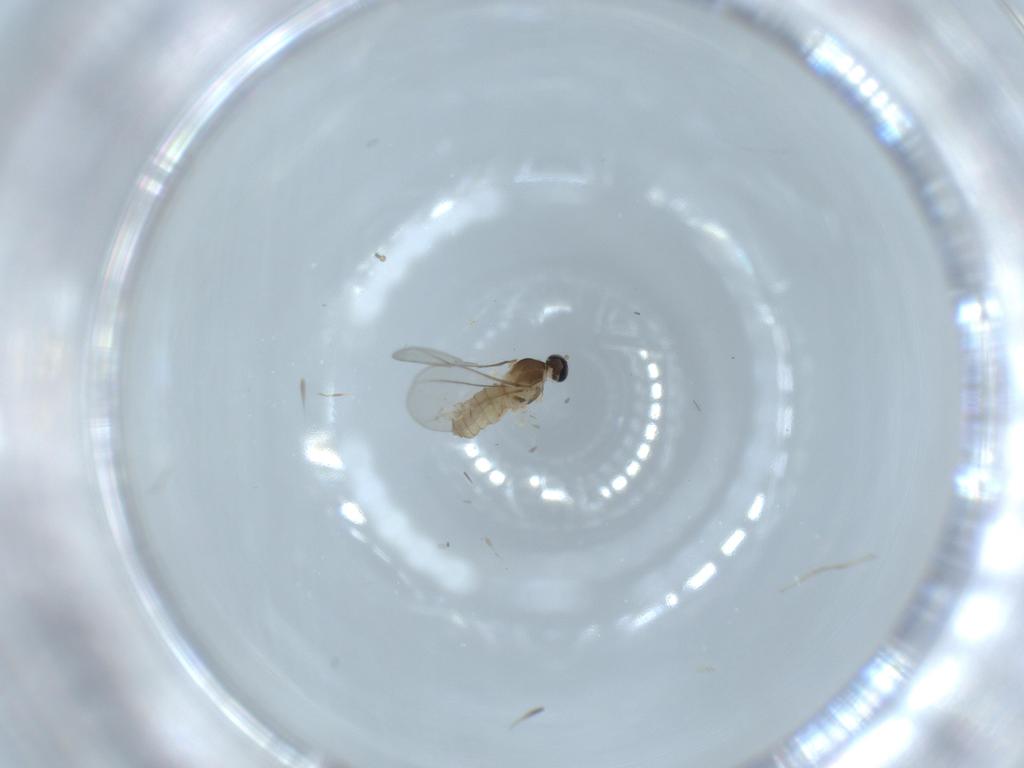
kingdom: Animalia
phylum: Arthropoda
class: Insecta
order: Diptera
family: Cecidomyiidae
